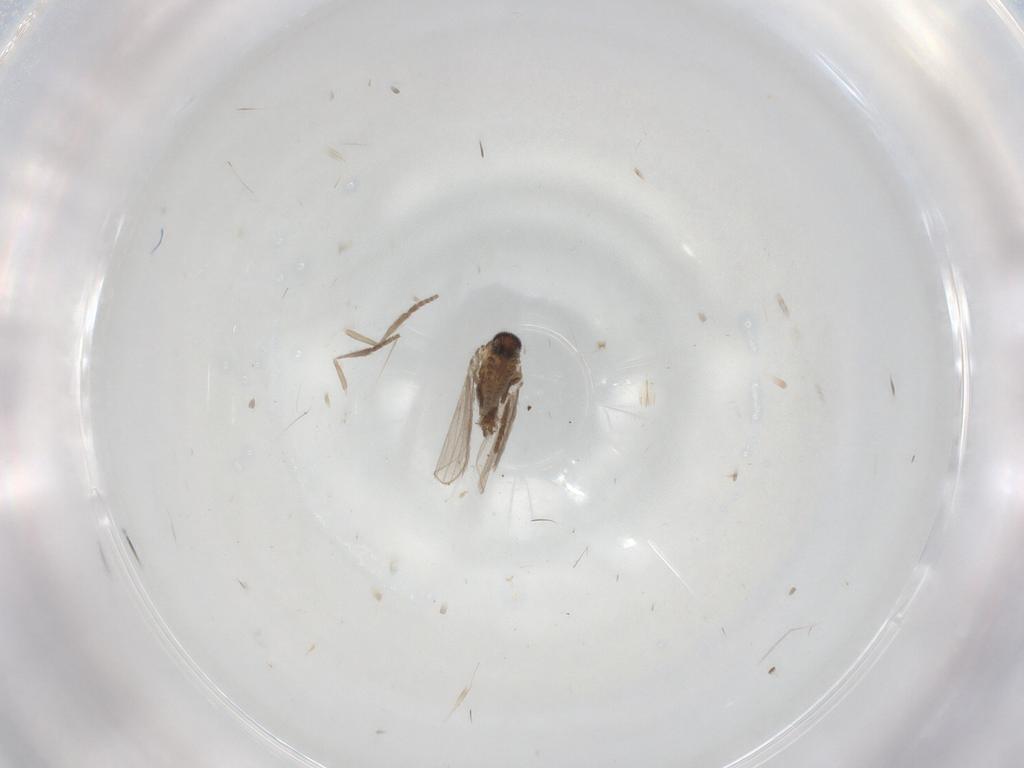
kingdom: Animalia
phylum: Arthropoda
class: Insecta
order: Diptera
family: Psychodidae
